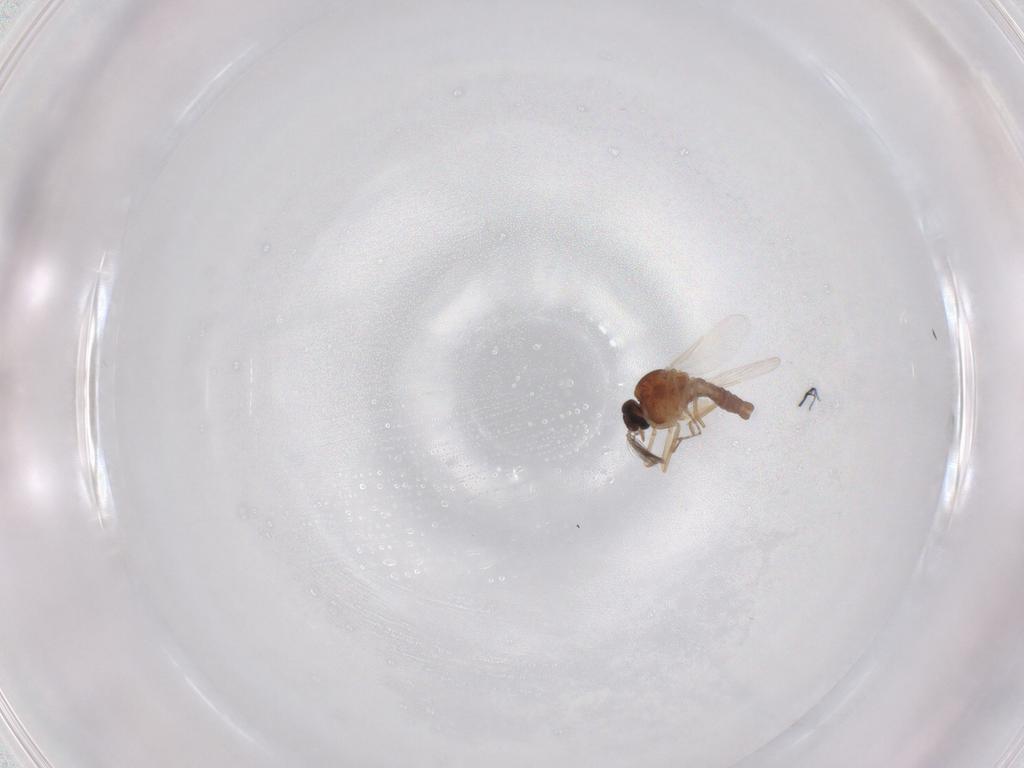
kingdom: Animalia
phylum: Arthropoda
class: Insecta
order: Diptera
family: Ceratopogonidae
